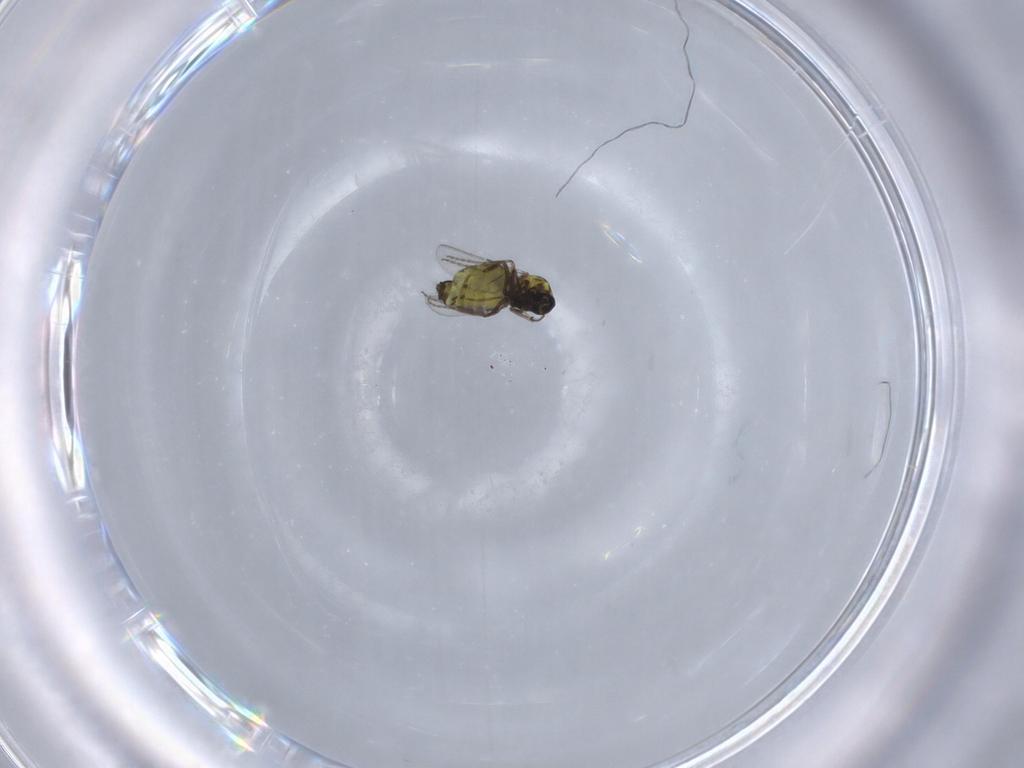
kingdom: Animalia
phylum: Arthropoda
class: Insecta
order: Diptera
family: Ceratopogonidae
